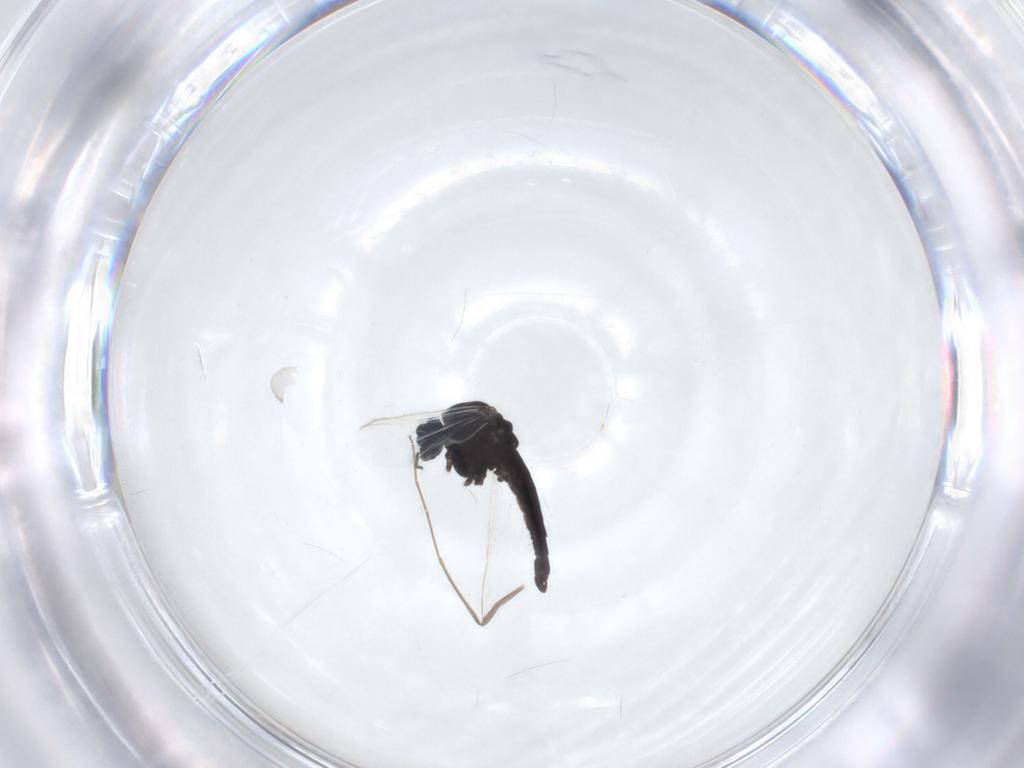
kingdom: Animalia
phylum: Arthropoda
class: Insecta
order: Diptera
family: Chironomidae
